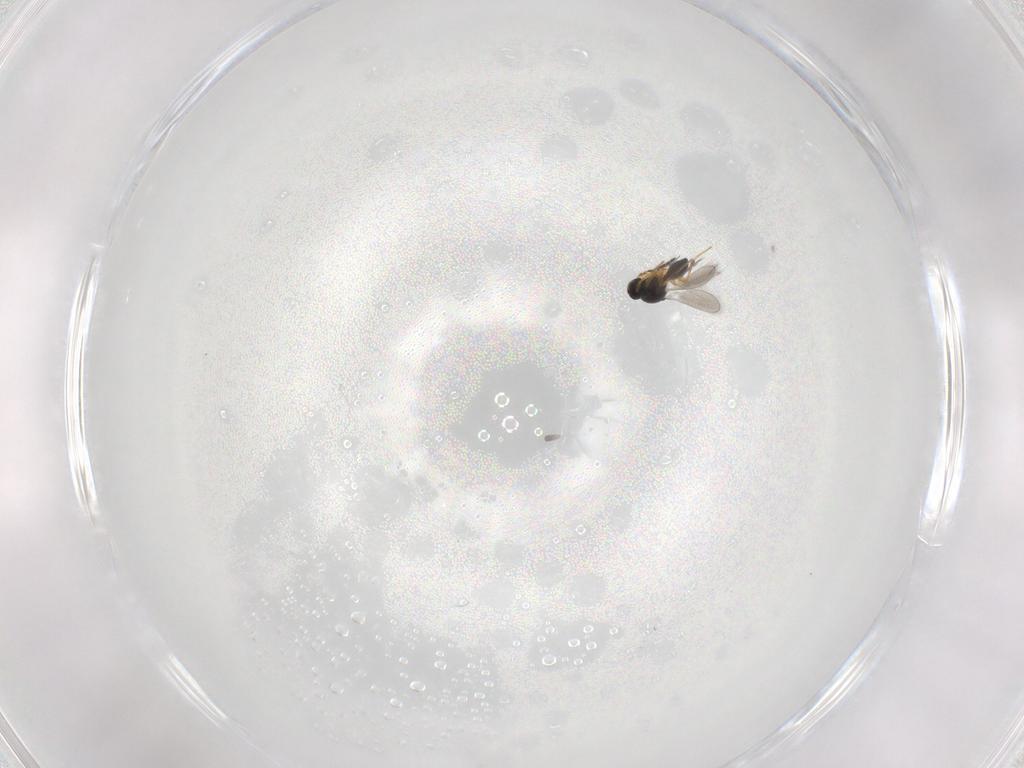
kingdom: Animalia
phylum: Arthropoda
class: Insecta
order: Hymenoptera
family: Platygastridae
